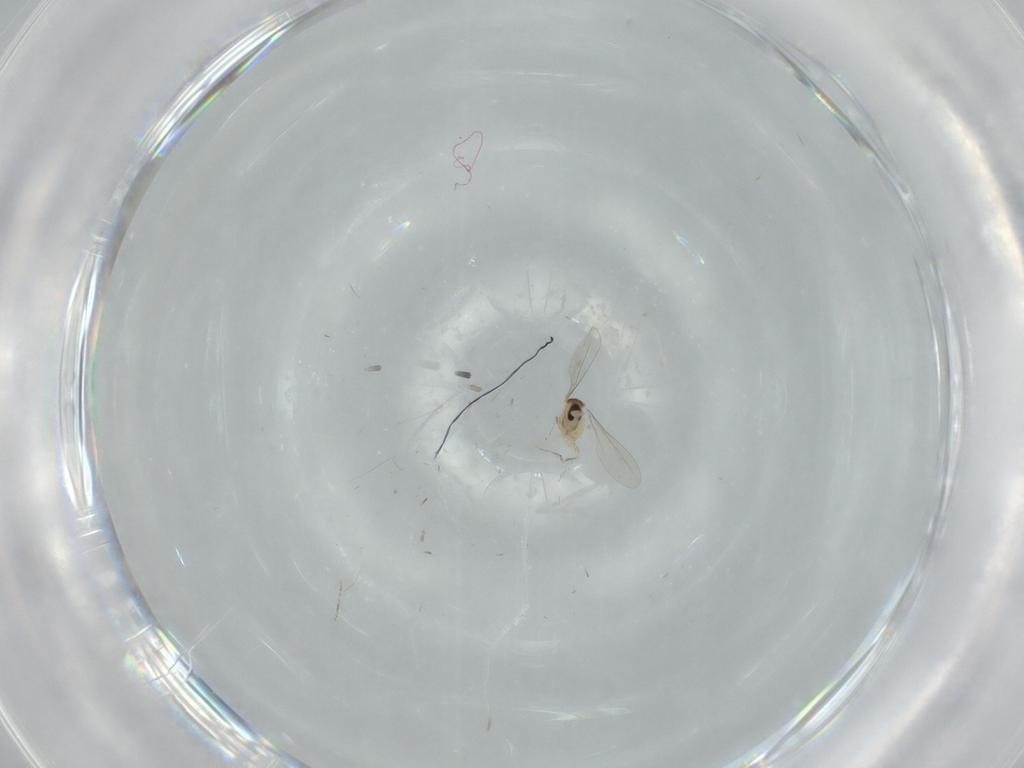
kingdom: Animalia
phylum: Arthropoda
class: Insecta
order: Diptera
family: Cecidomyiidae
